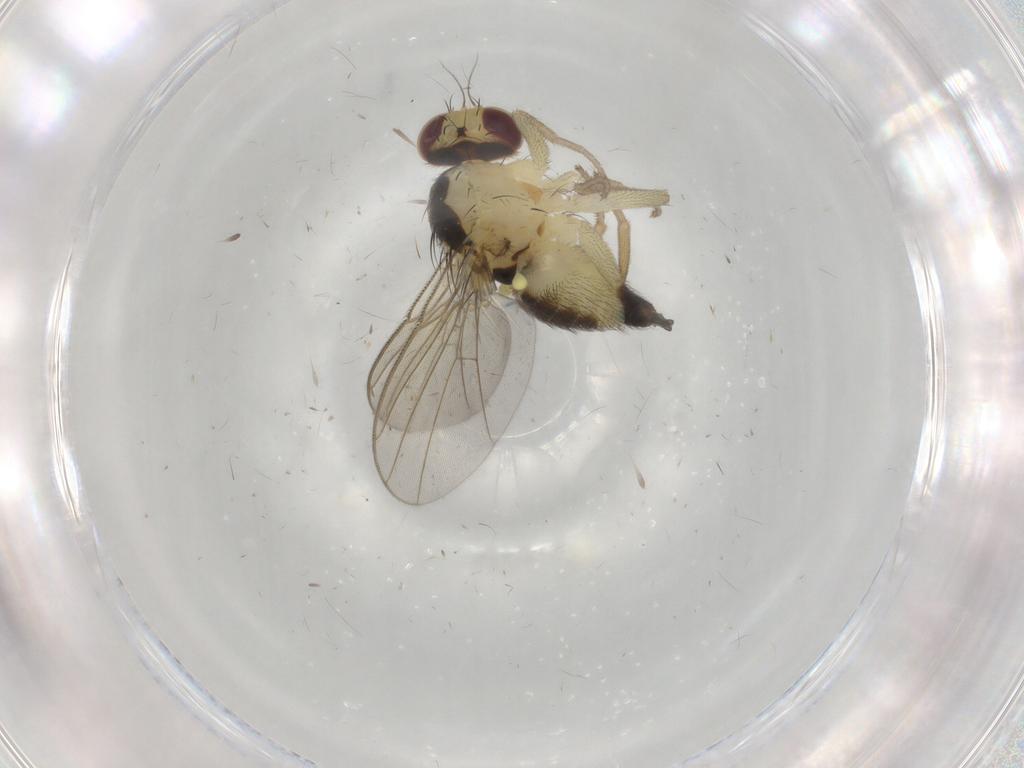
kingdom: Animalia
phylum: Arthropoda
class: Insecta
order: Diptera
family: Agromyzidae
